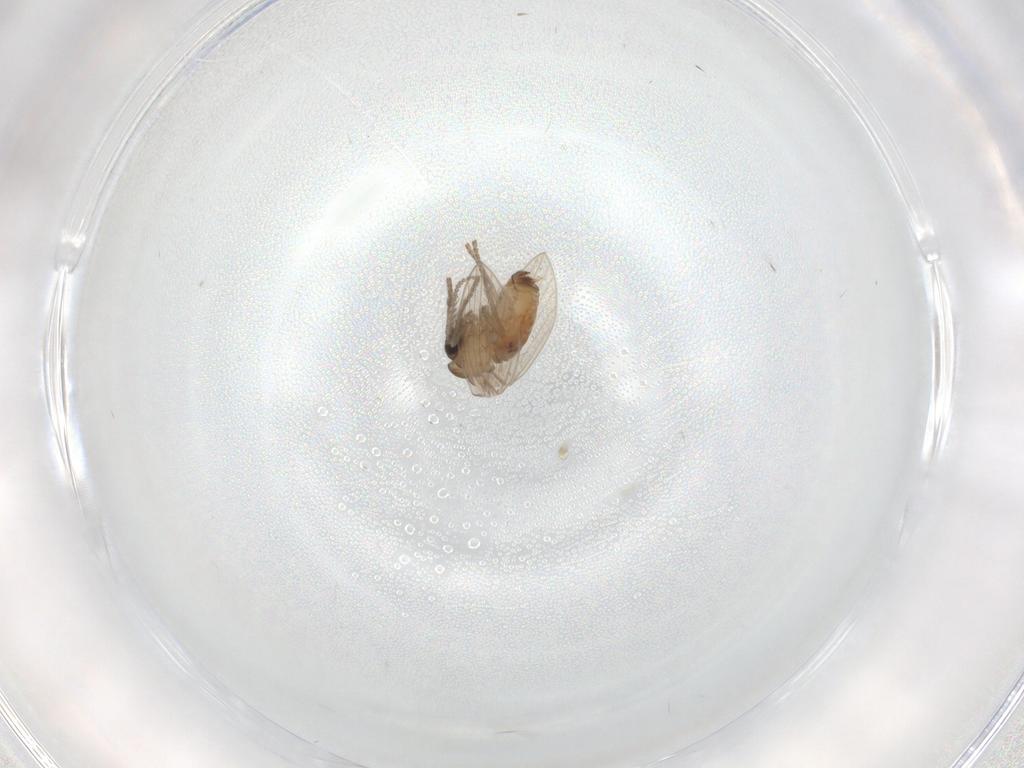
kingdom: Animalia
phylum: Arthropoda
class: Insecta
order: Diptera
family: Psychodidae
